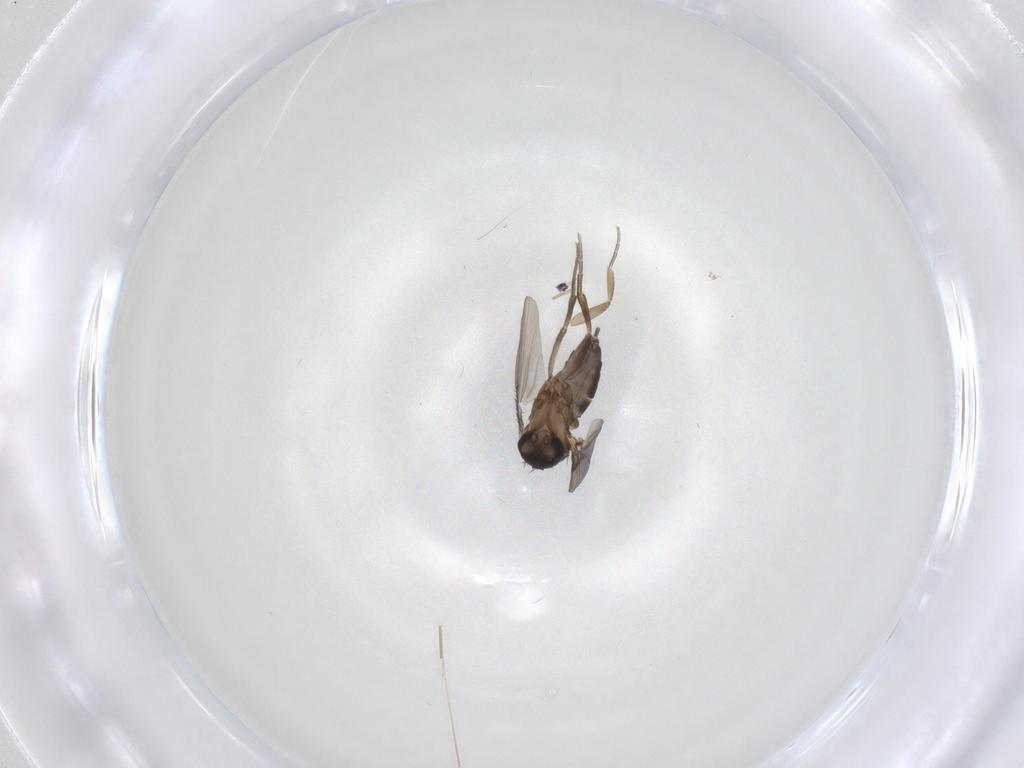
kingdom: Animalia
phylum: Arthropoda
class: Insecta
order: Diptera
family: Phoridae
